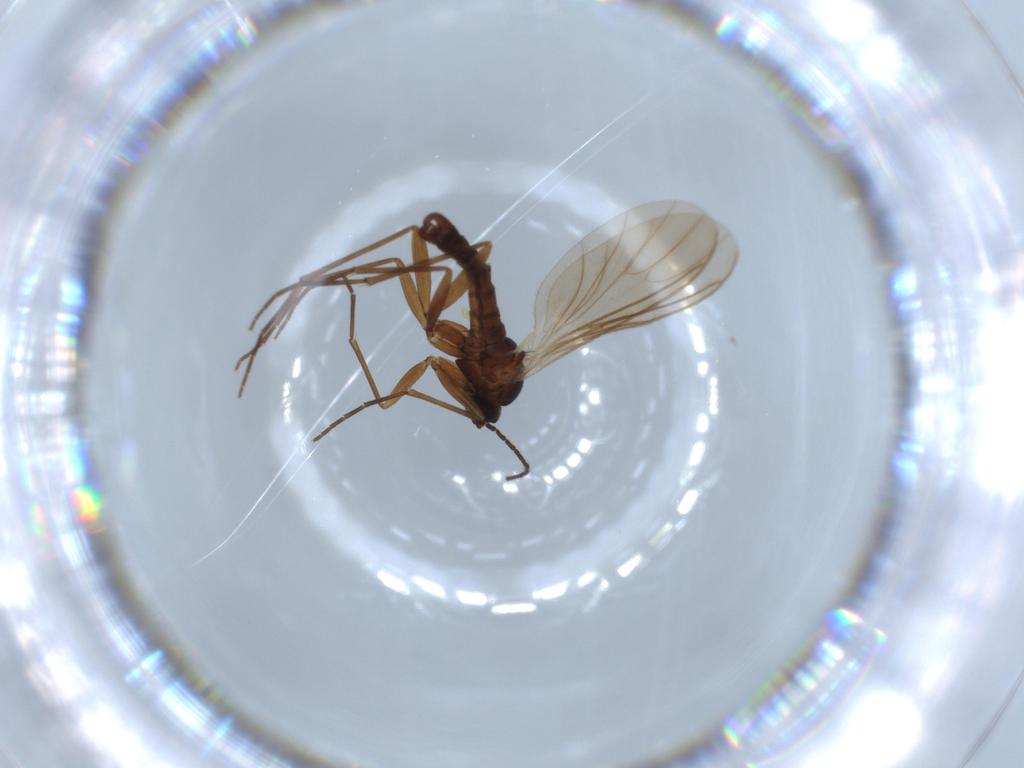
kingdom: Animalia
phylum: Arthropoda
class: Insecta
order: Diptera
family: Sciaridae
